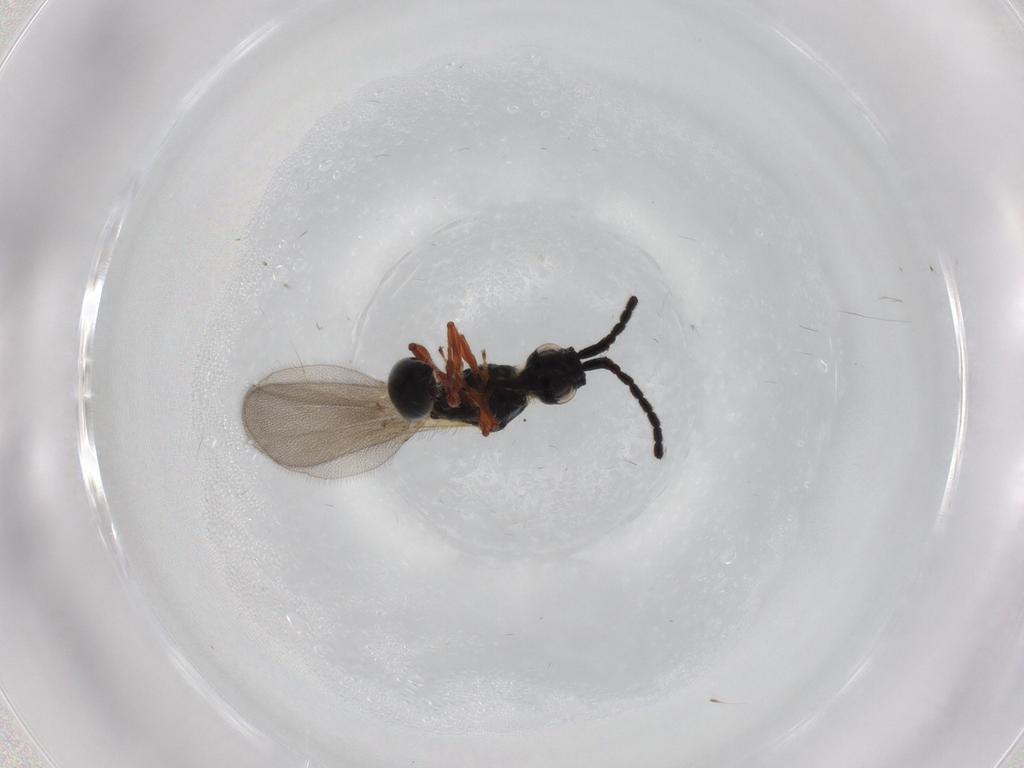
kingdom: Animalia
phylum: Arthropoda
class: Insecta
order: Hymenoptera
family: Diapriidae
